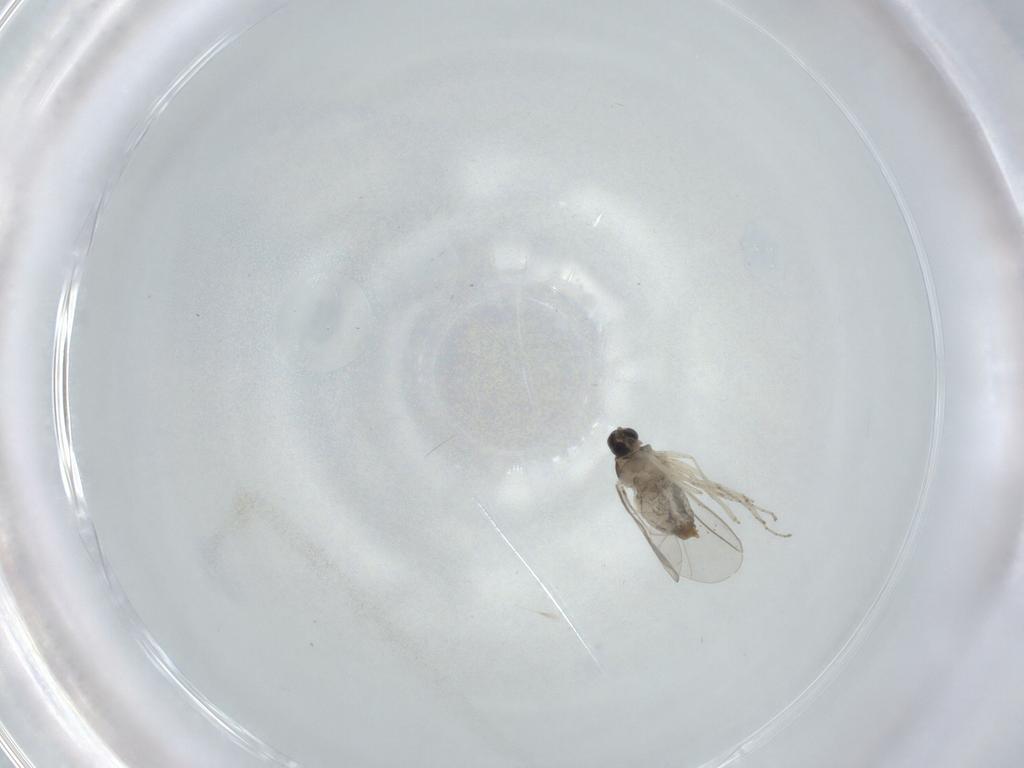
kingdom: Animalia
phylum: Arthropoda
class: Insecta
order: Diptera
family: Cecidomyiidae
